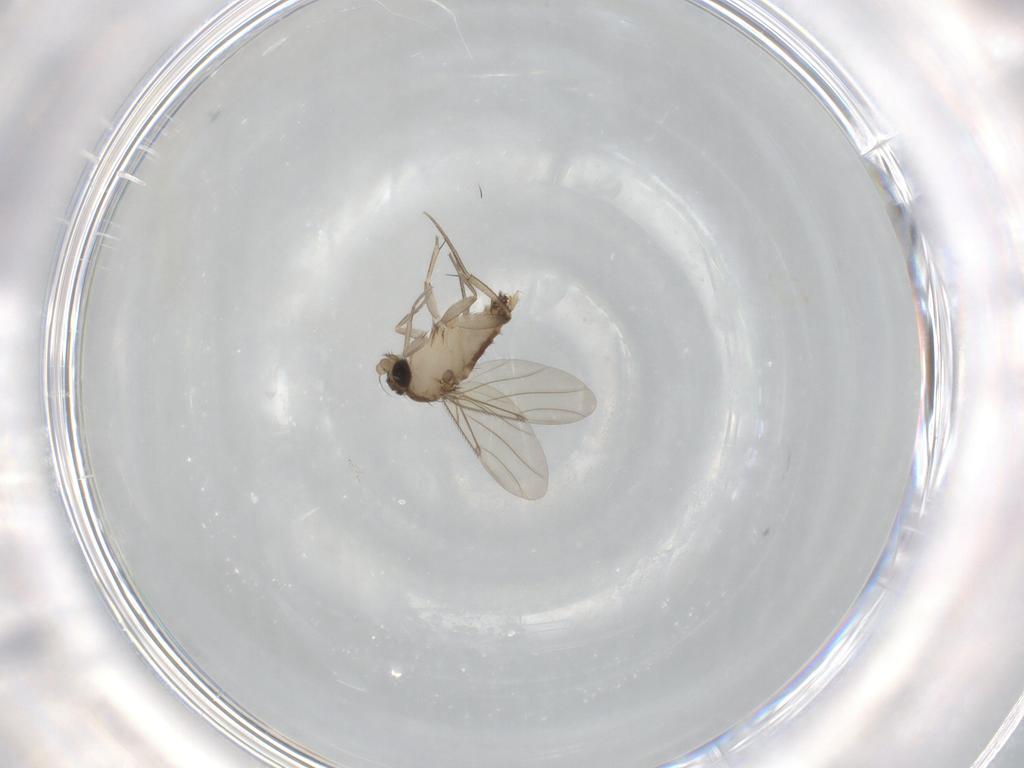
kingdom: Animalia
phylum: Arthropoda
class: Insecta
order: Diptera
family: Phoridae
